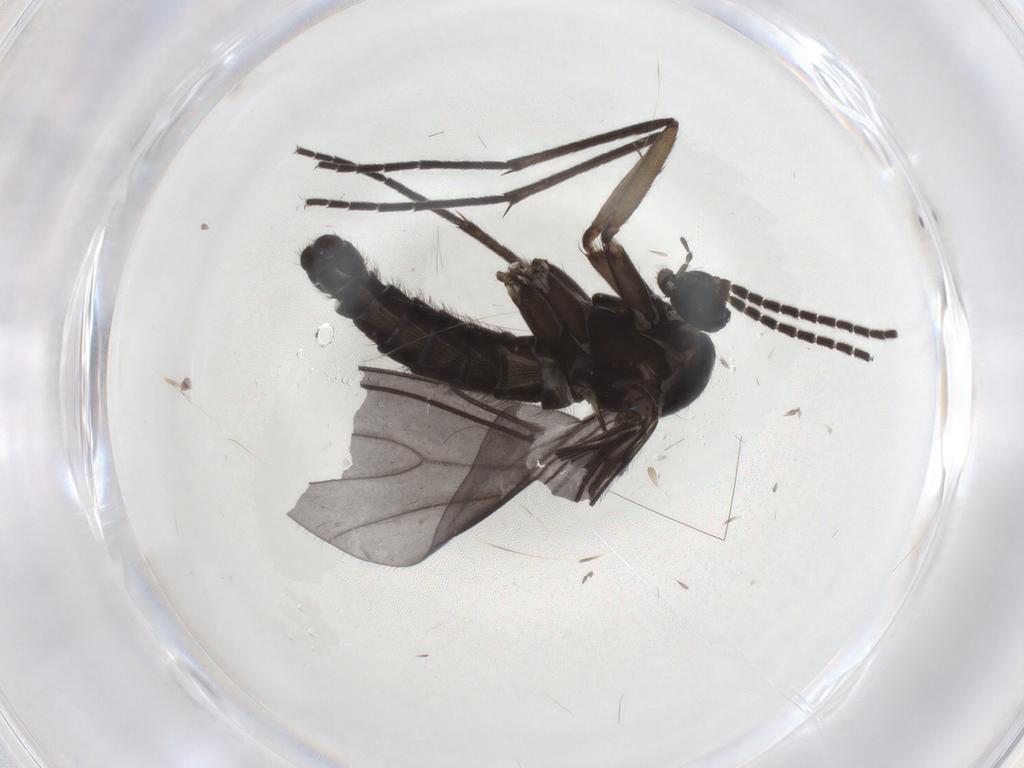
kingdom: Animalia
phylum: Arthropoda
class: Insecta
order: Diptera
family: Sciaridae
